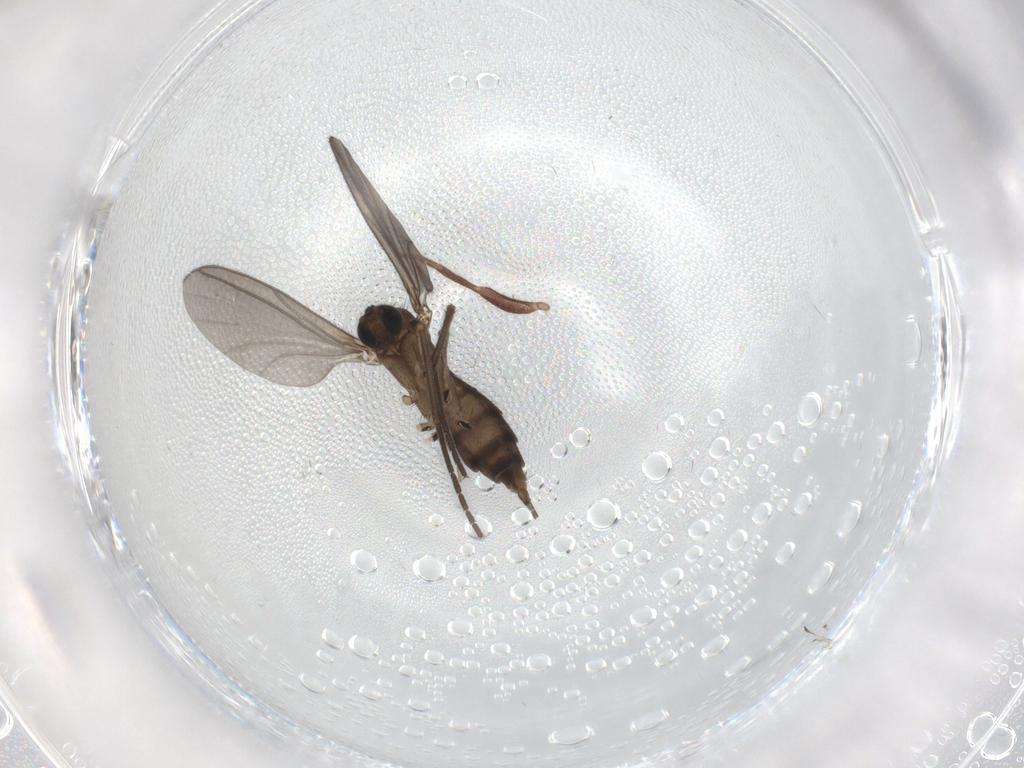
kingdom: Animalia
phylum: Arthropoda
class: Insecta
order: Diptera
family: Sciaridae
